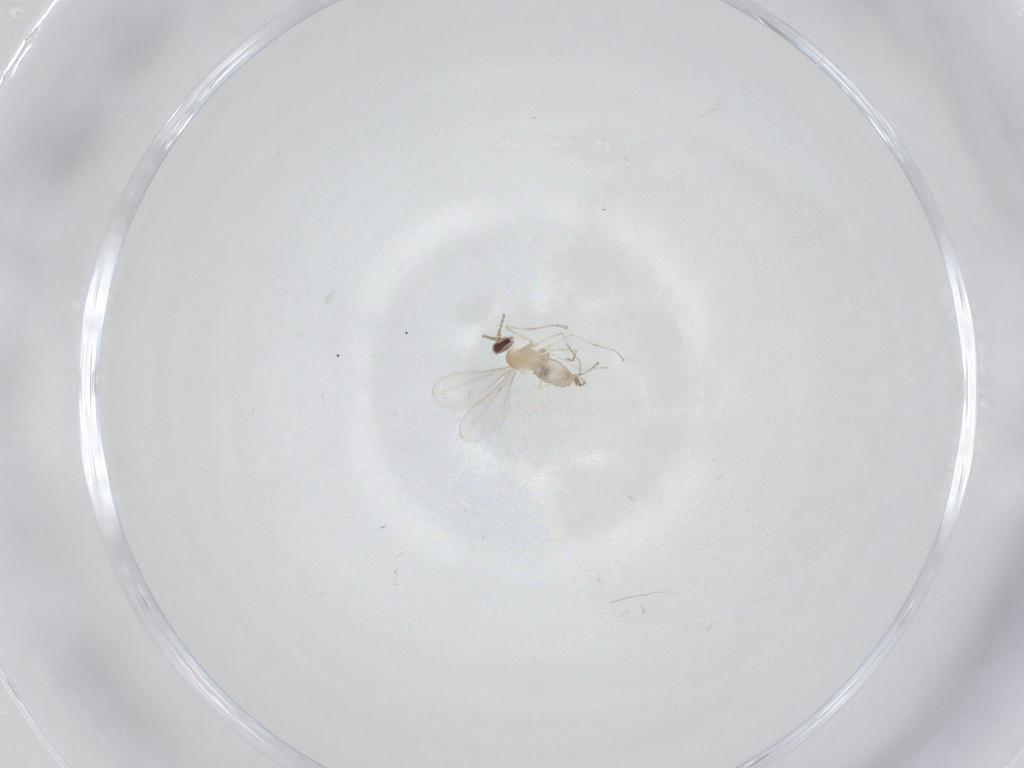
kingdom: Animalia
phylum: Arthropoda
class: Insecta
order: Diptera
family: Cecidomyiidae
